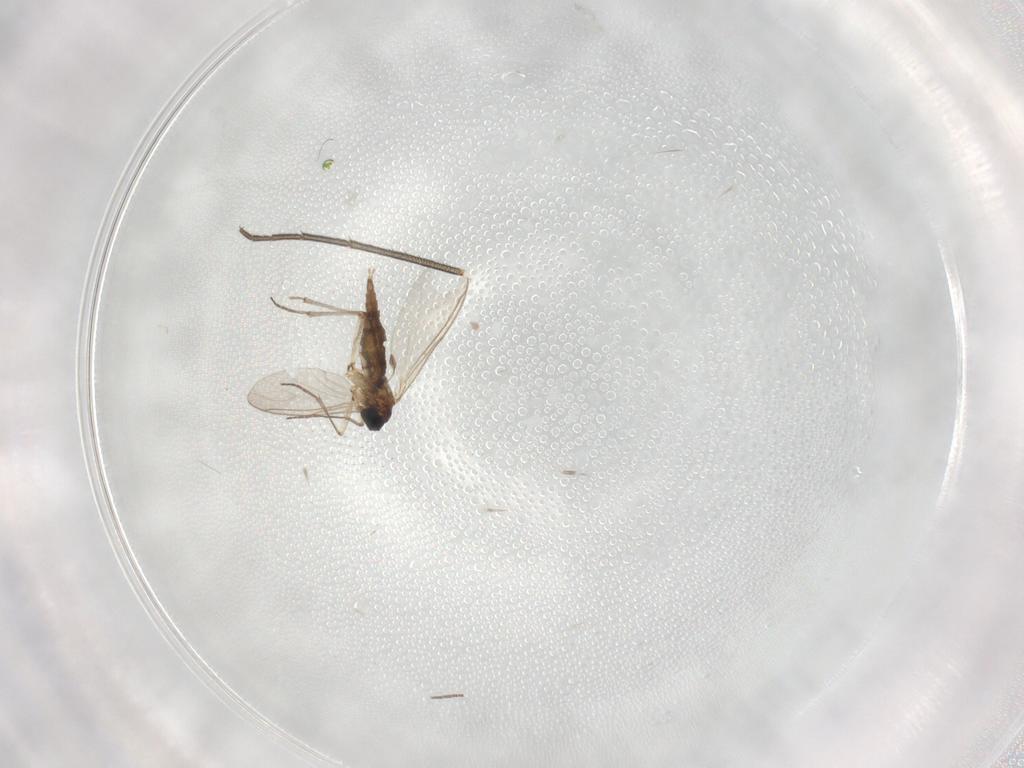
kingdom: Animalia
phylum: Arthropoda
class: Insecta
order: Diptera
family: Sciaridae
